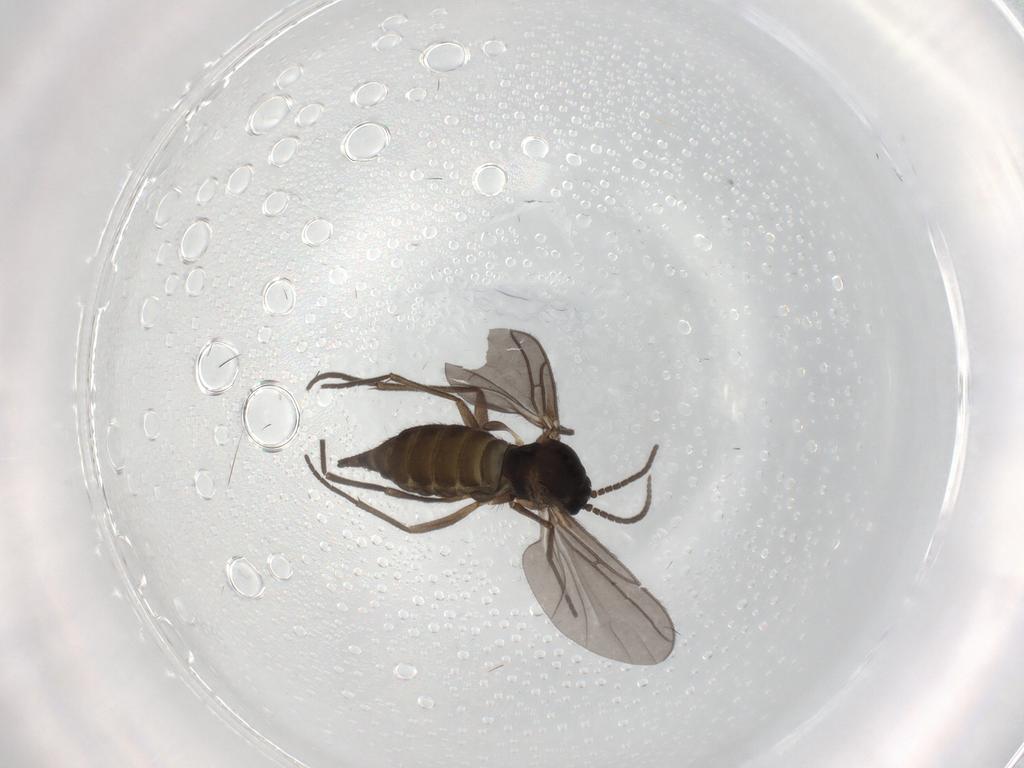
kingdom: Animalia
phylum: Arthropoda
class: Insecta
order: Diptera
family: Sciaridae
